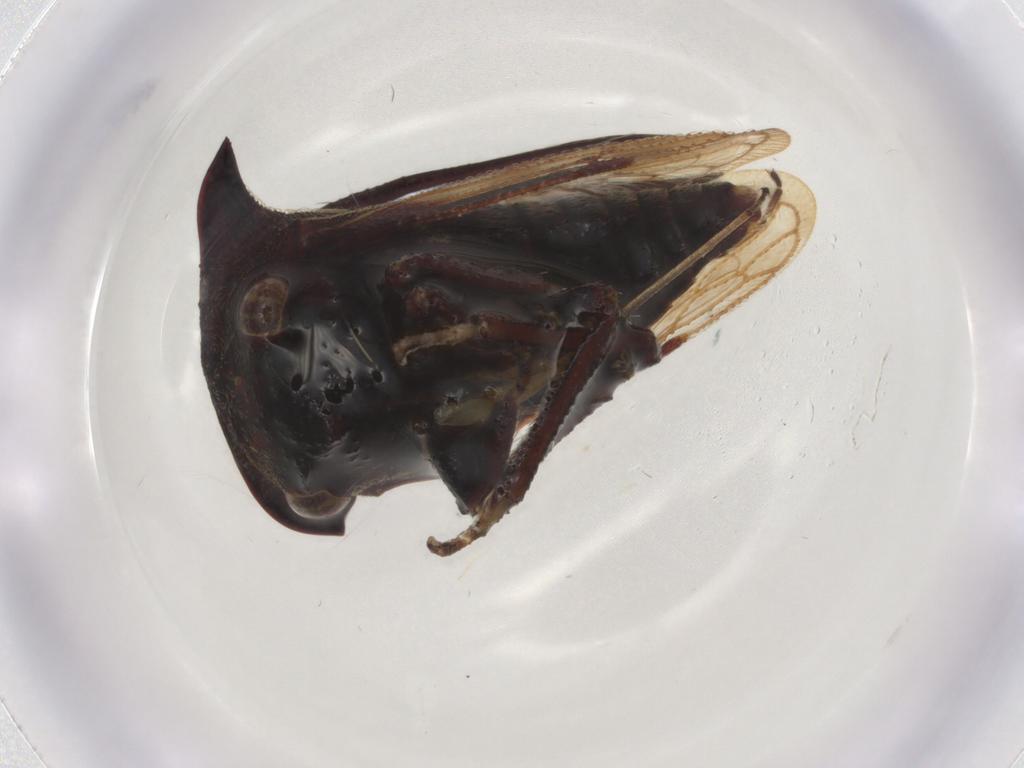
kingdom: Animalia
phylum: Arthropoda
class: Insecta
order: Hemiptera
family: Membracidae
